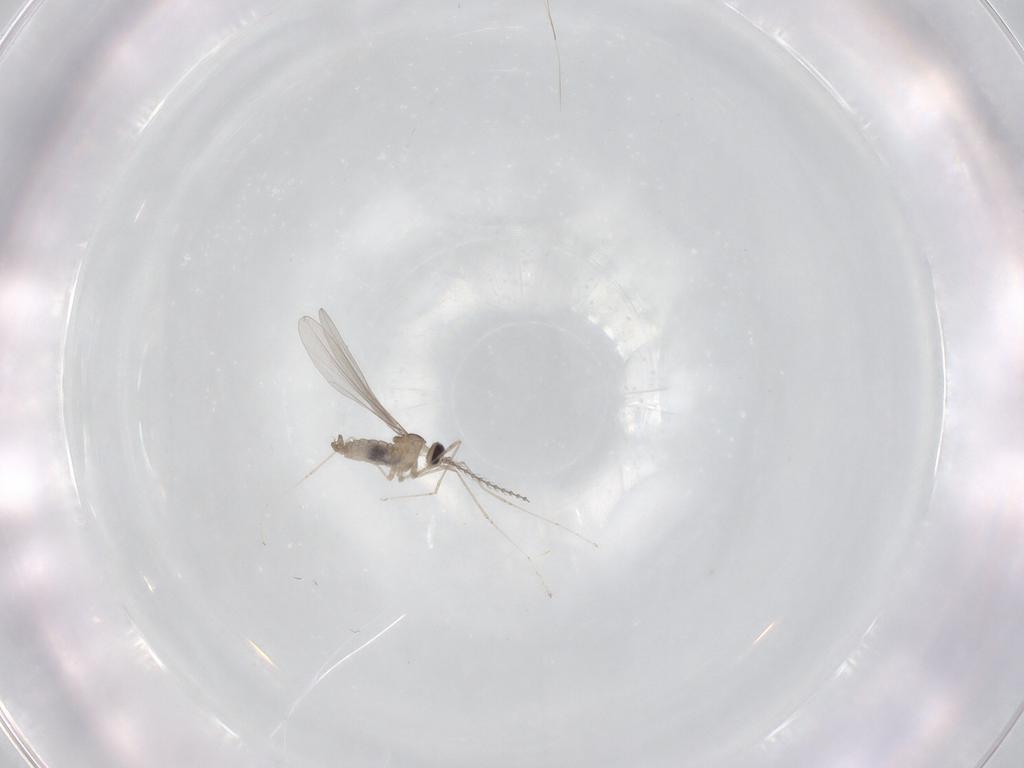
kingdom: Animalia
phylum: Arthropoda
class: Insecta
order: Diptera
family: Cecidomyiidae
